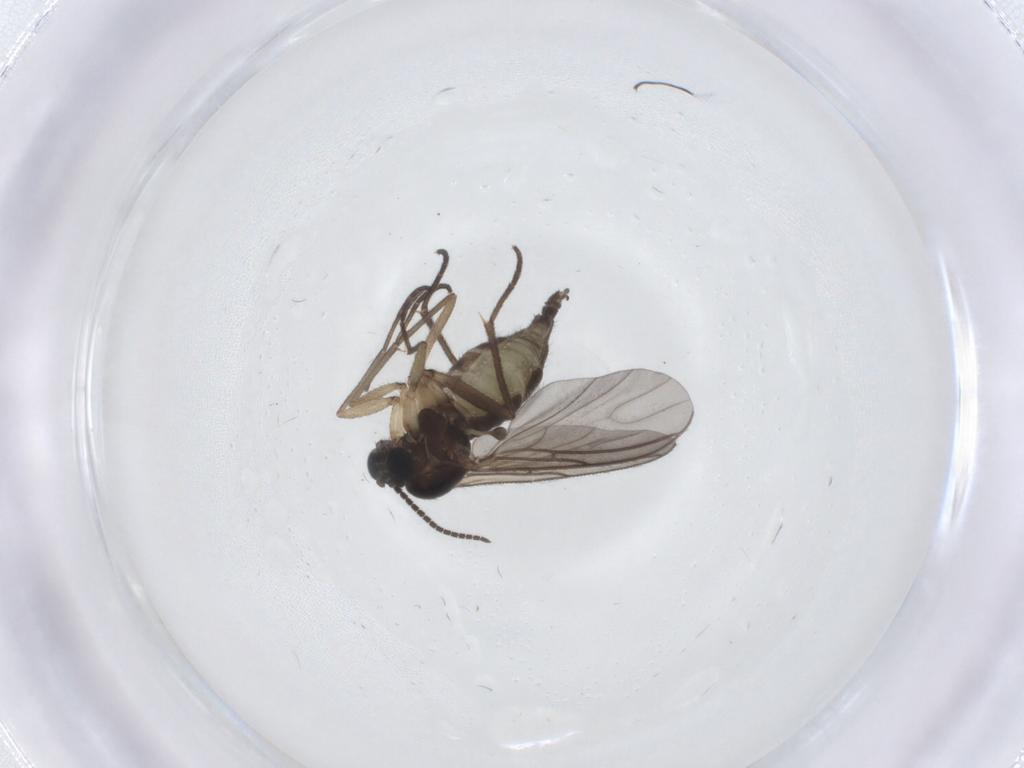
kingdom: Animalia
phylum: Arthropoda
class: Insecta
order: Diptera
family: Sciaridae
